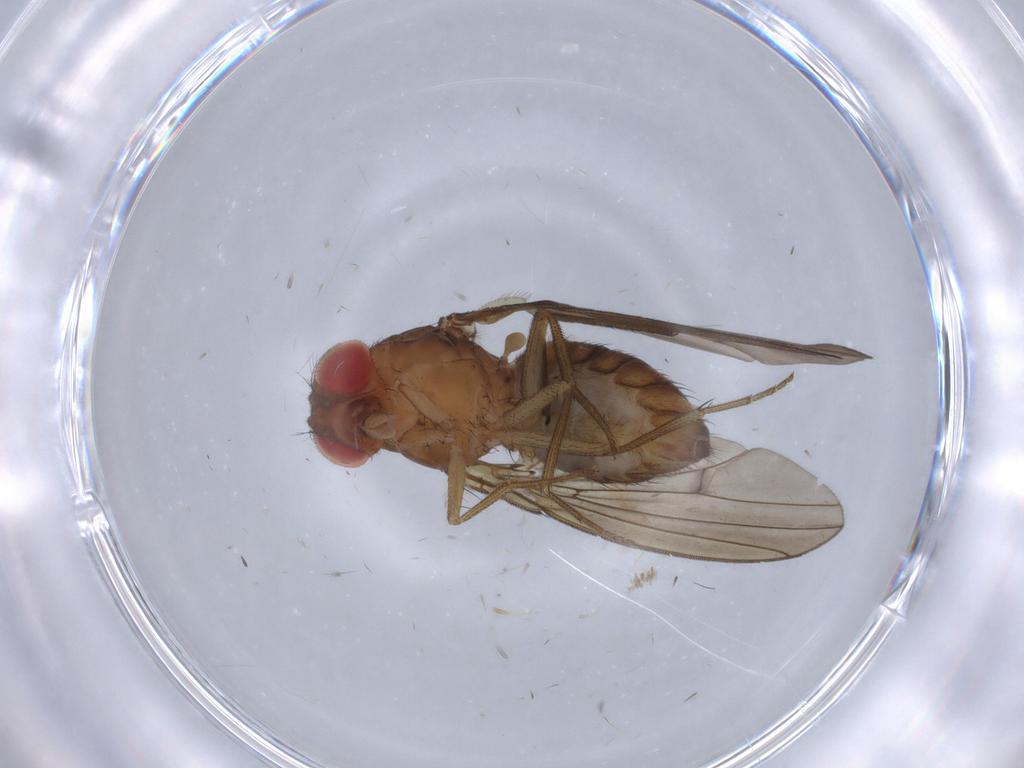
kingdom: Animalia
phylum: Arthropoda
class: Insecta
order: Diptera
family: Drosophilidae
